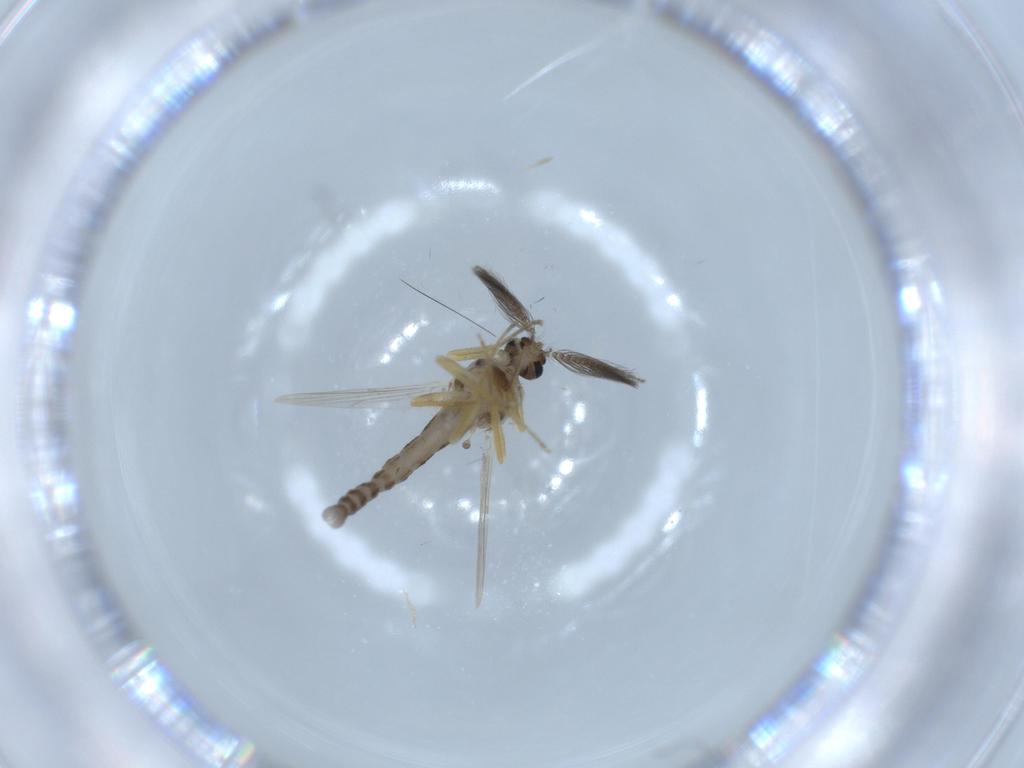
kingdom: Animalia
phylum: Arthropoda
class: Insecta
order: Diptera
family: Ceratopogonidae
